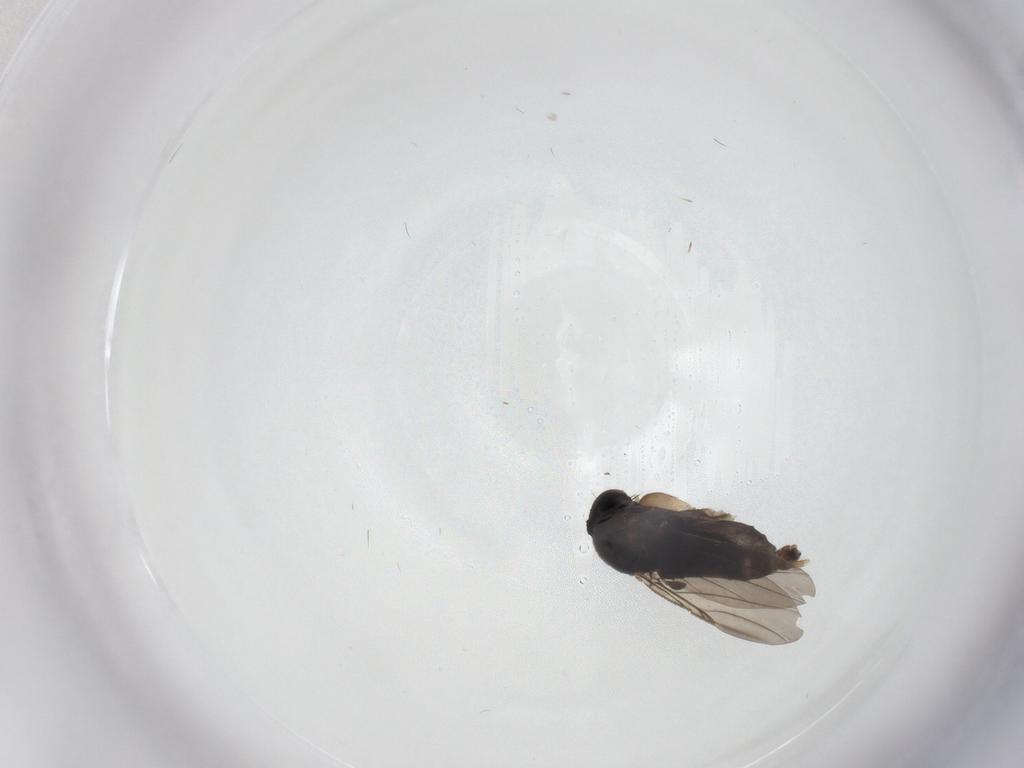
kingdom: Animalia
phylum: Arthropoda
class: Insecta
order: Diptera
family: Phoridae
